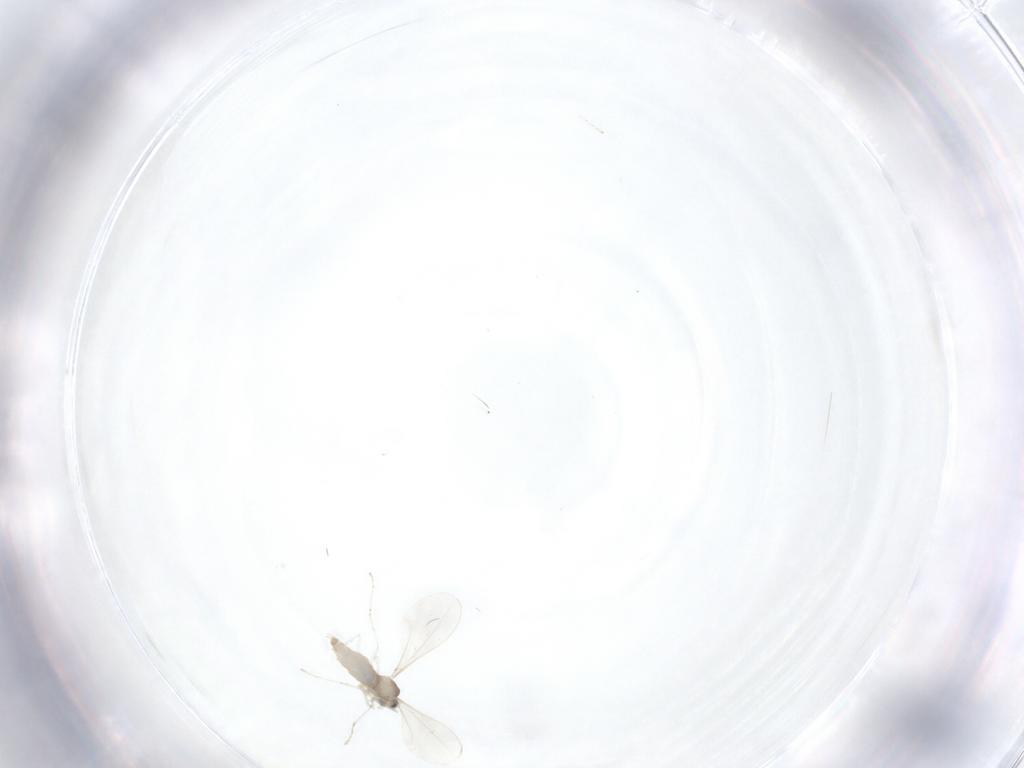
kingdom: Animalia
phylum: Arthropoda
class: Insecta
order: Diptera
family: Cecidomyiidae
